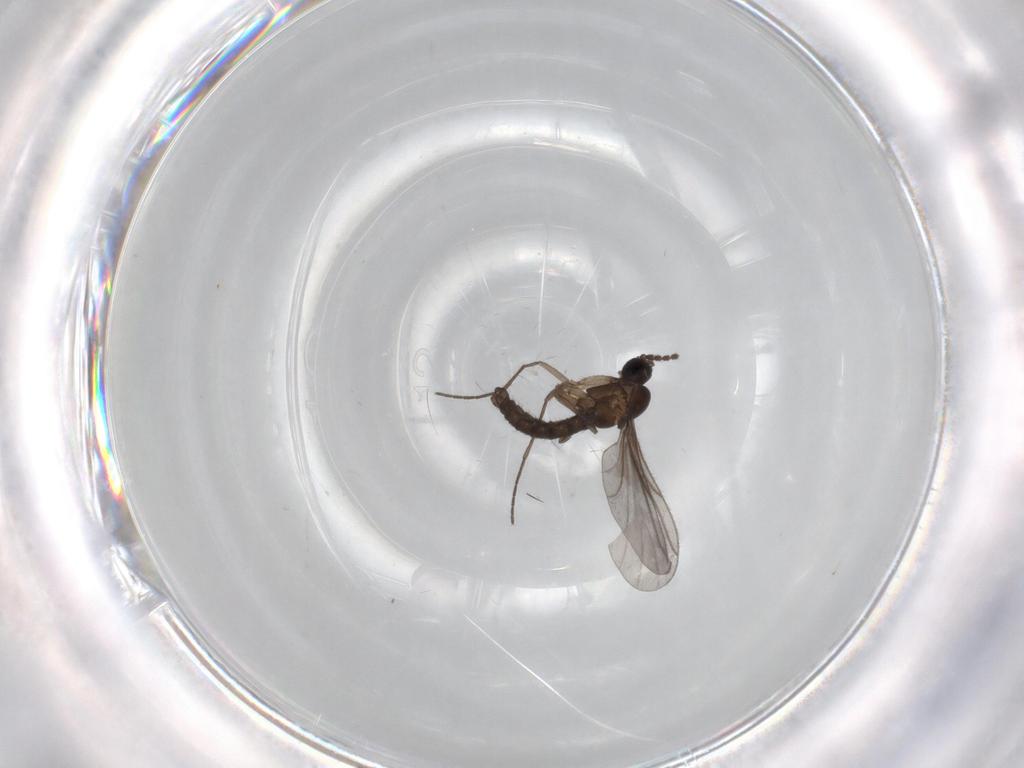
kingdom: Animalia
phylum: Arthropoda
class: Insecta
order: Diptera
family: Sciaridae
